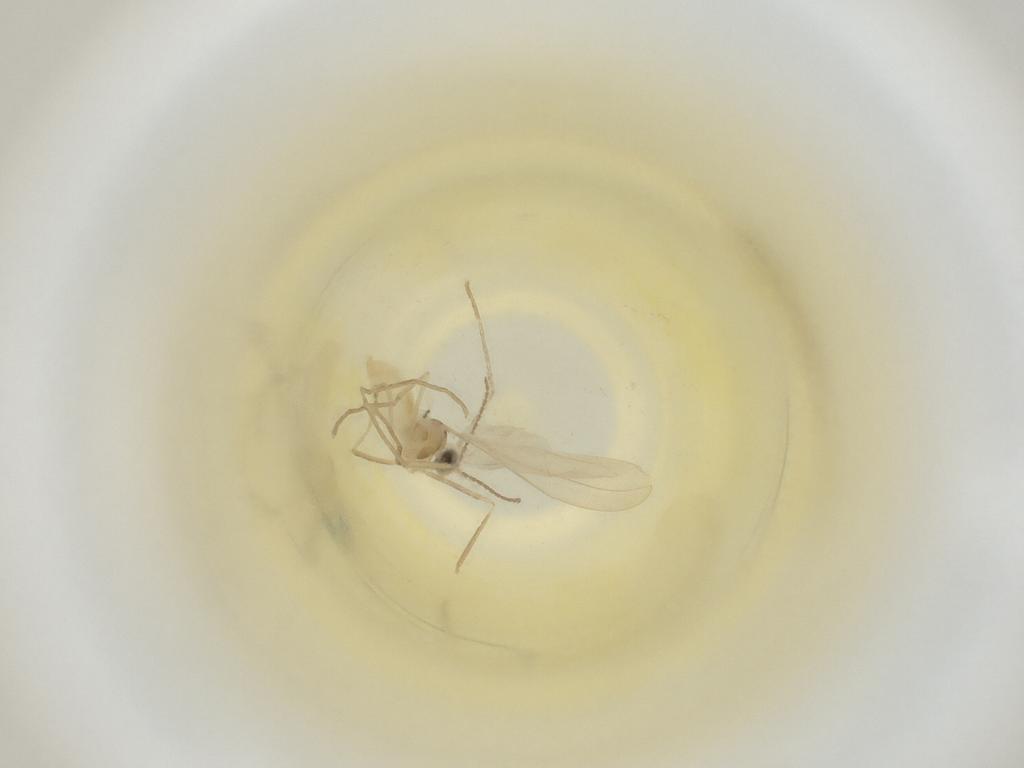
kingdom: Animalia
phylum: Arthropoda
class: Insecta
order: Diptera
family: Cecidomyiidae
